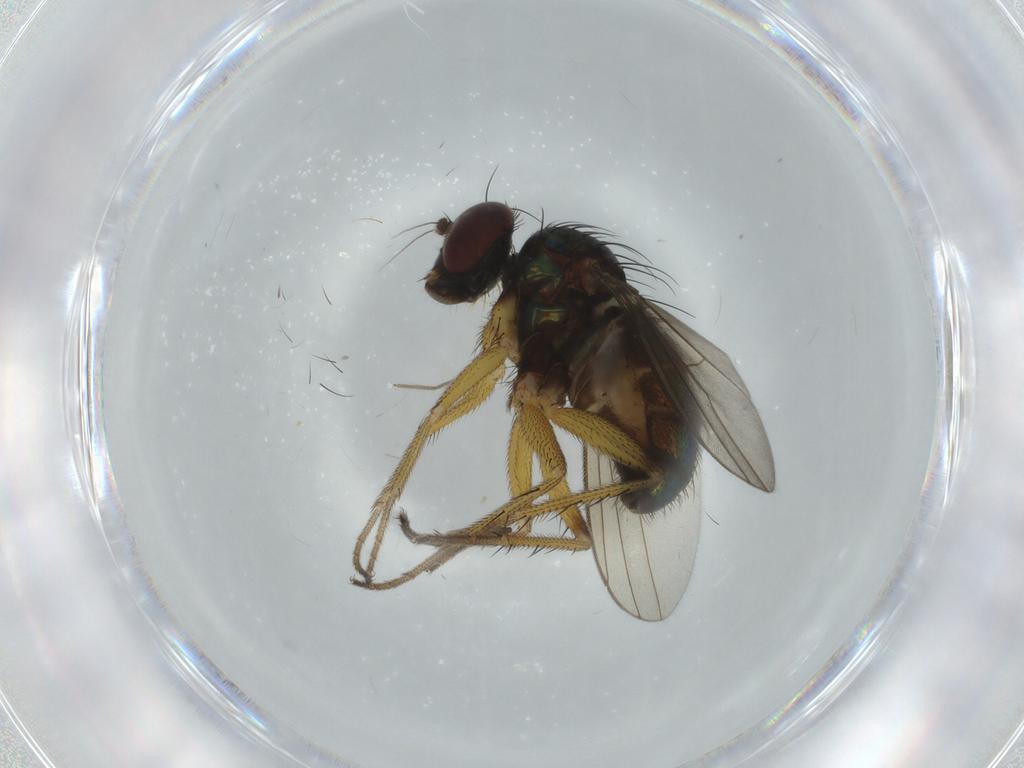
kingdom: Animalia
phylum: Arthropoda
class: Insecta
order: Diptera
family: Dolichopodidae
